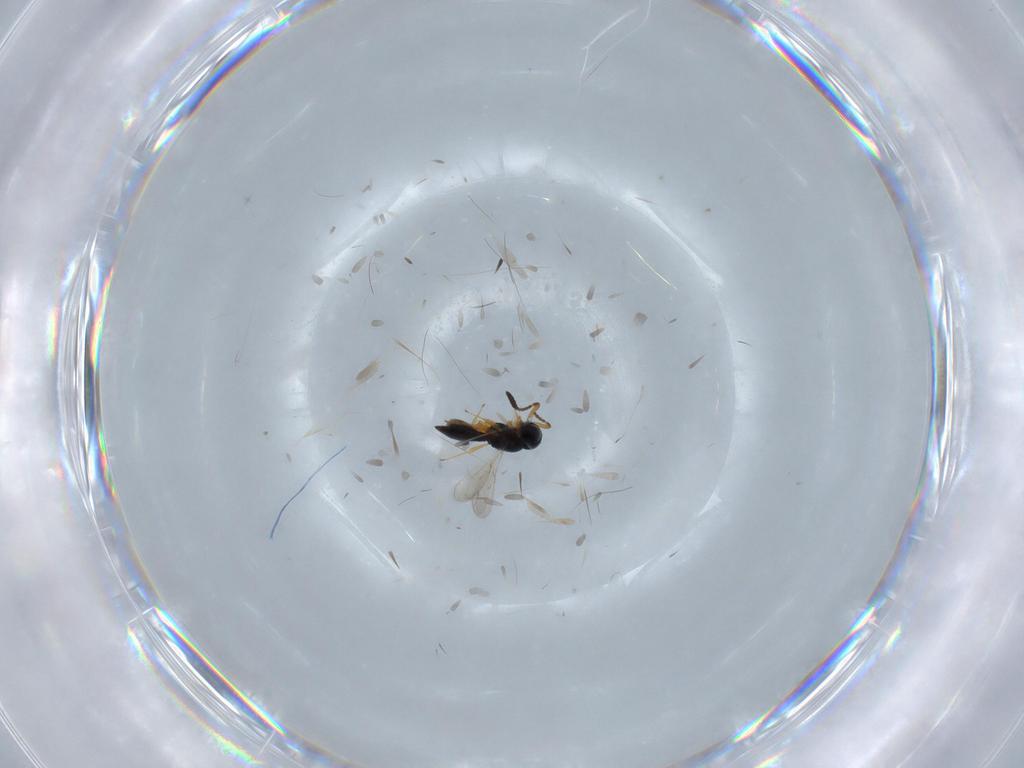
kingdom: Animalia
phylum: Arthropoda
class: Insecta
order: Hymenoptera
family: Scelionidae
